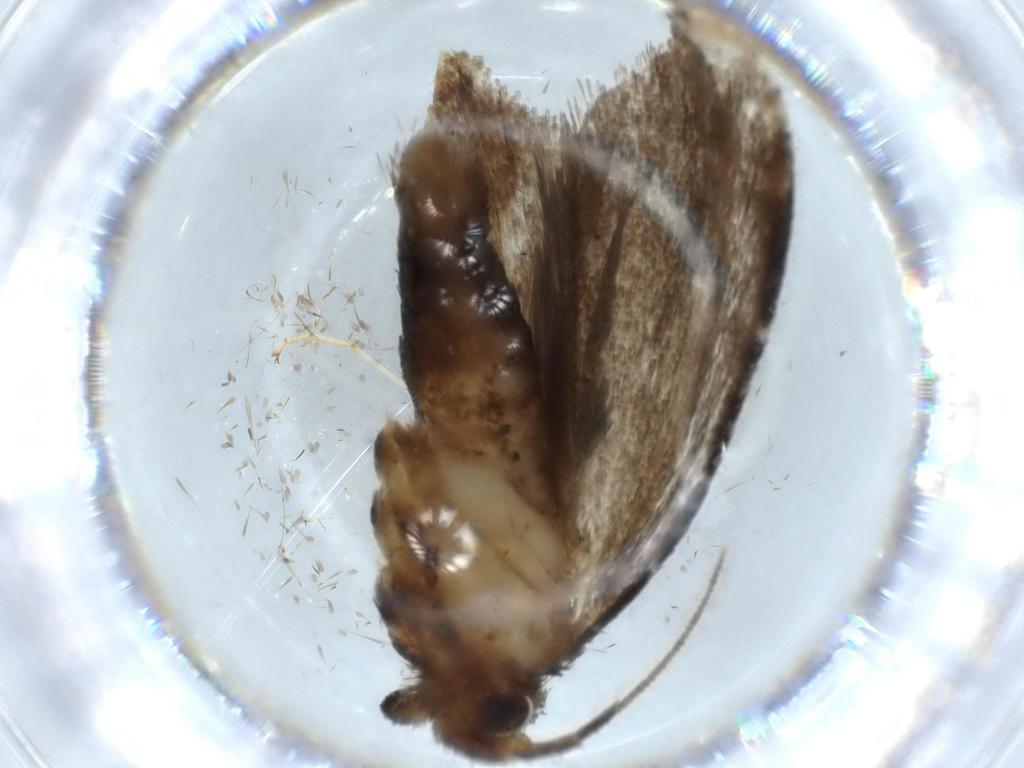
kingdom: Animalia
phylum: Arthropoda
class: Insecta
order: Lepidoptera
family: Tineidae
